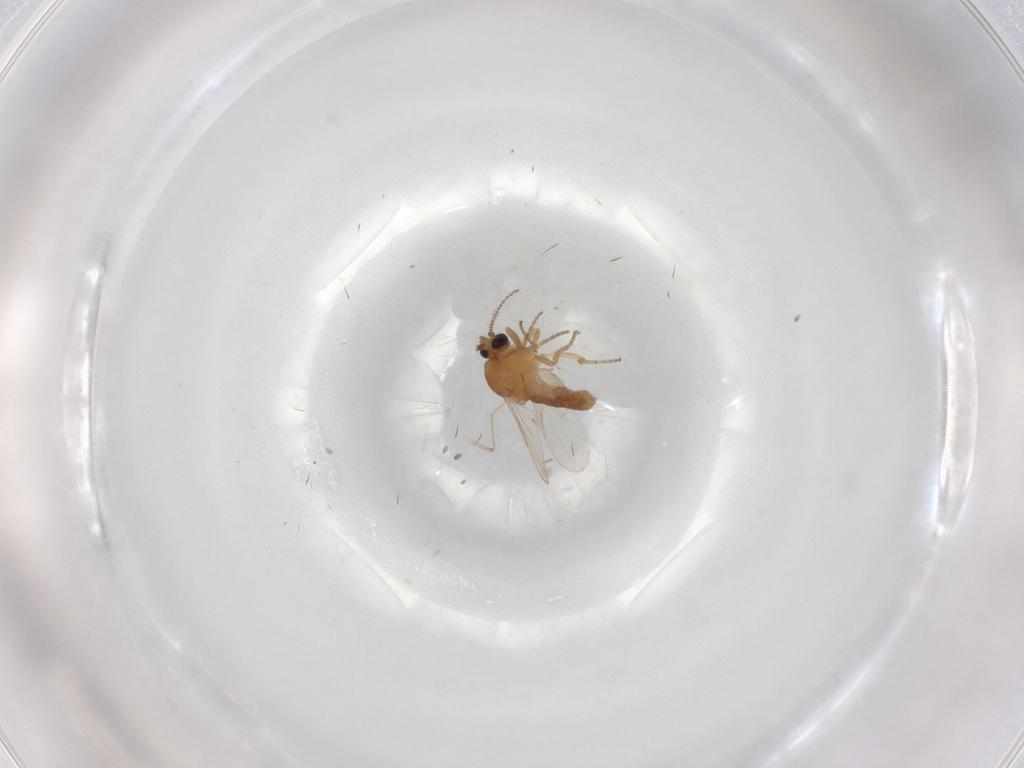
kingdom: Animalia
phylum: Arthropoda
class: Insecta
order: Diptera
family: Ceratopogonidae
